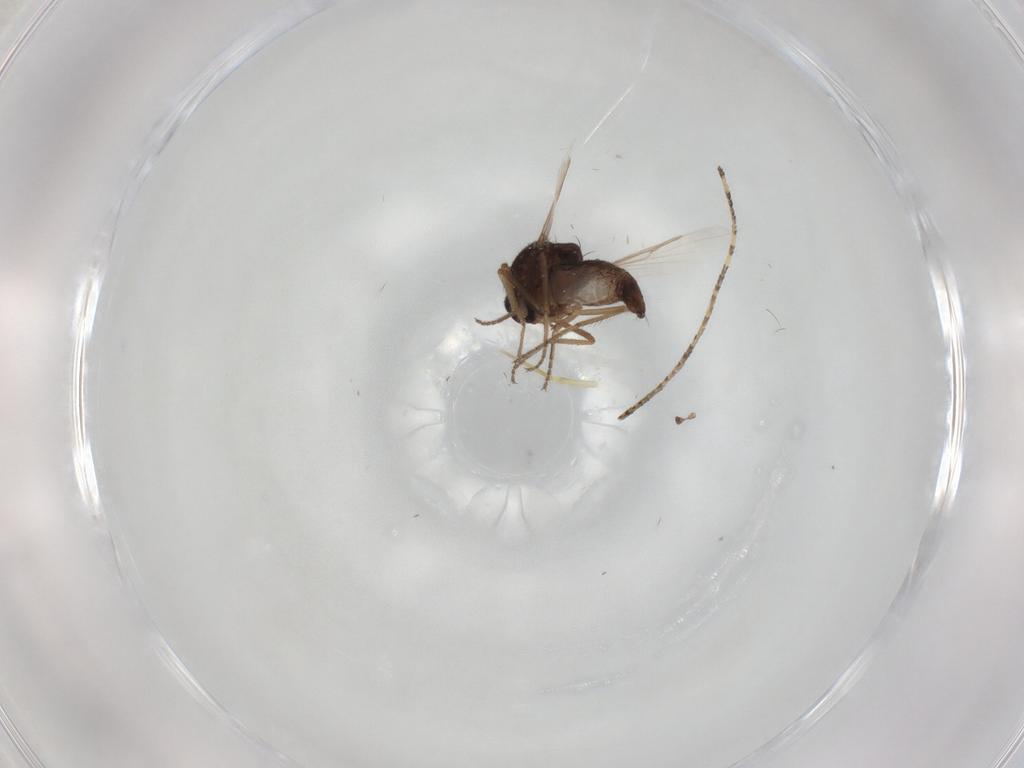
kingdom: Animalia
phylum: Arthropoda
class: Insecta
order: Diptera
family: Ceratopogonidae
